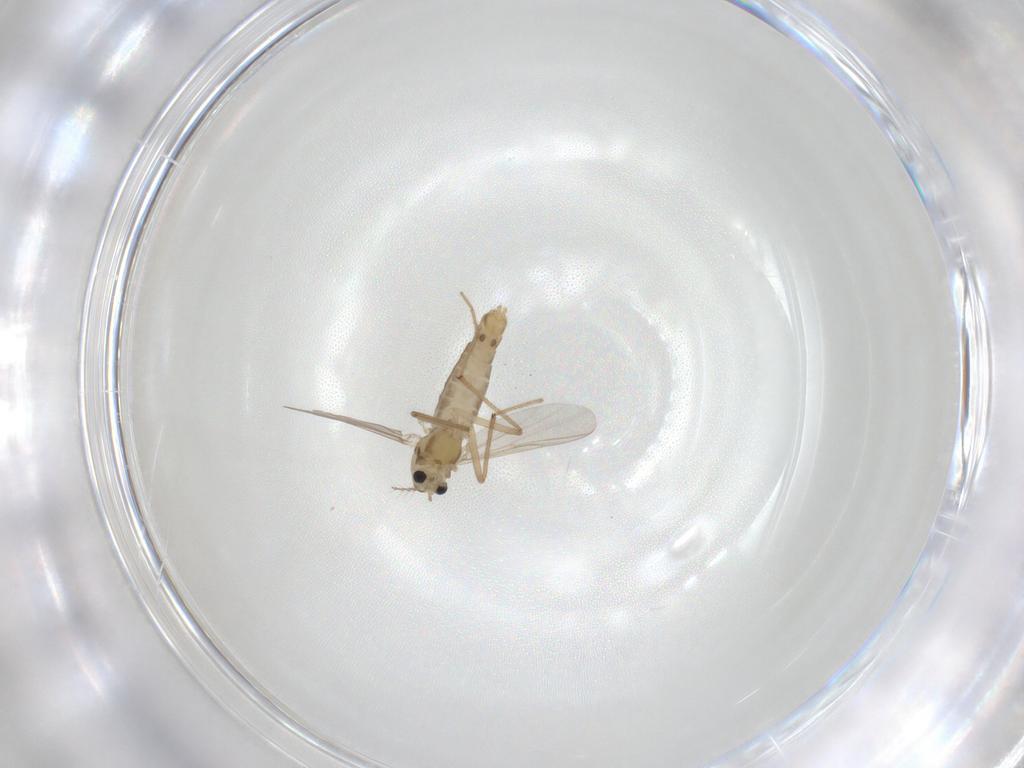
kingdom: Animalia
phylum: Arthropoda
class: Insecta
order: Diptera
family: Chironomidae
